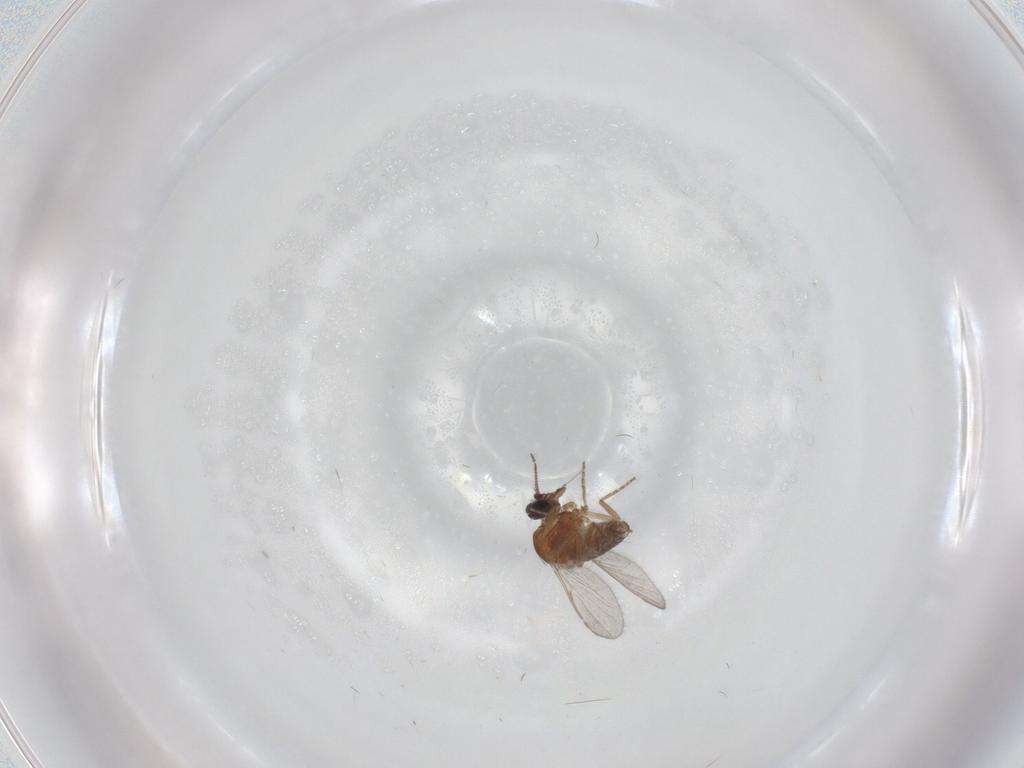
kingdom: Animalia
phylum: Arthropoda
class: Insecta
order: Diptera
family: Ceratopogonidae
